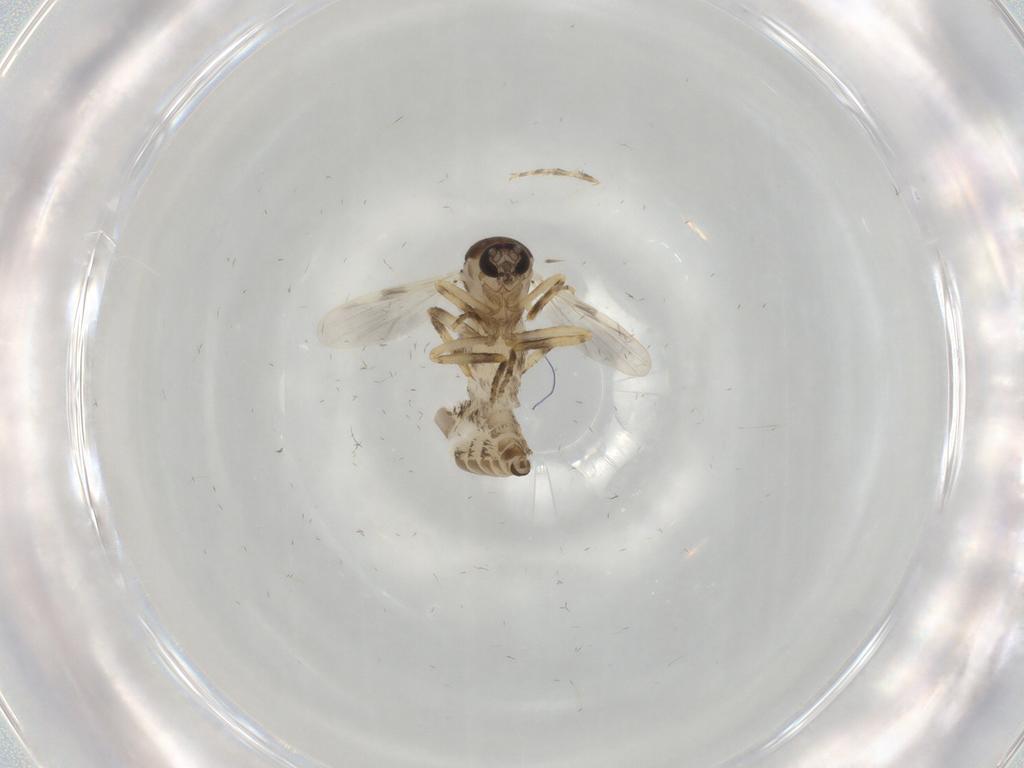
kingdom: Animalia
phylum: Arthropoda
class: Insecta
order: Diptera
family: Ceratopogonidae
